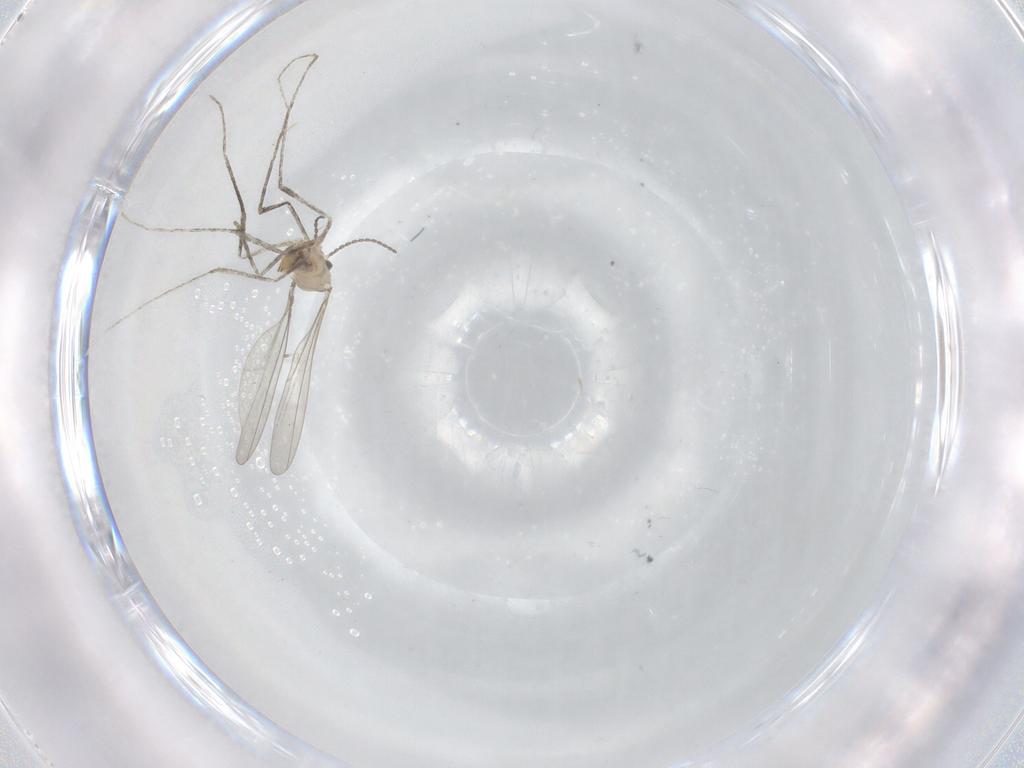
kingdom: Animalia
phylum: Arthropoda
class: Insecta
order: Diptera
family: Cecidomyiidae
